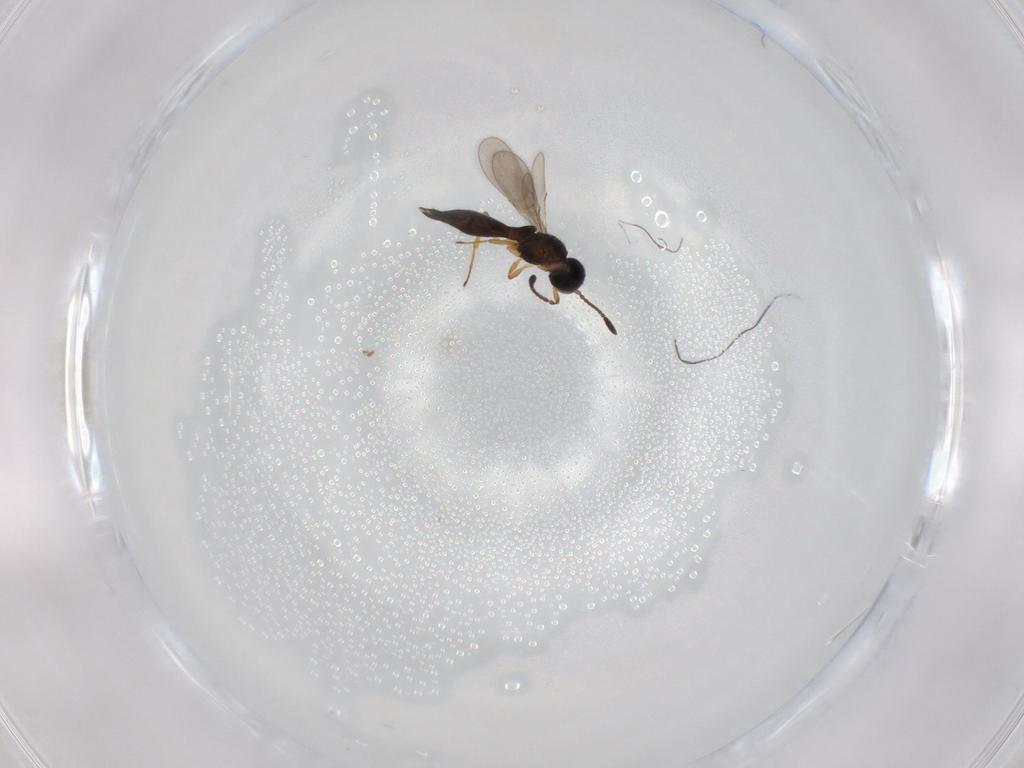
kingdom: Animalia
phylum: Arthropoda
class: Insecta
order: Hymenoptera
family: Scelionidae
